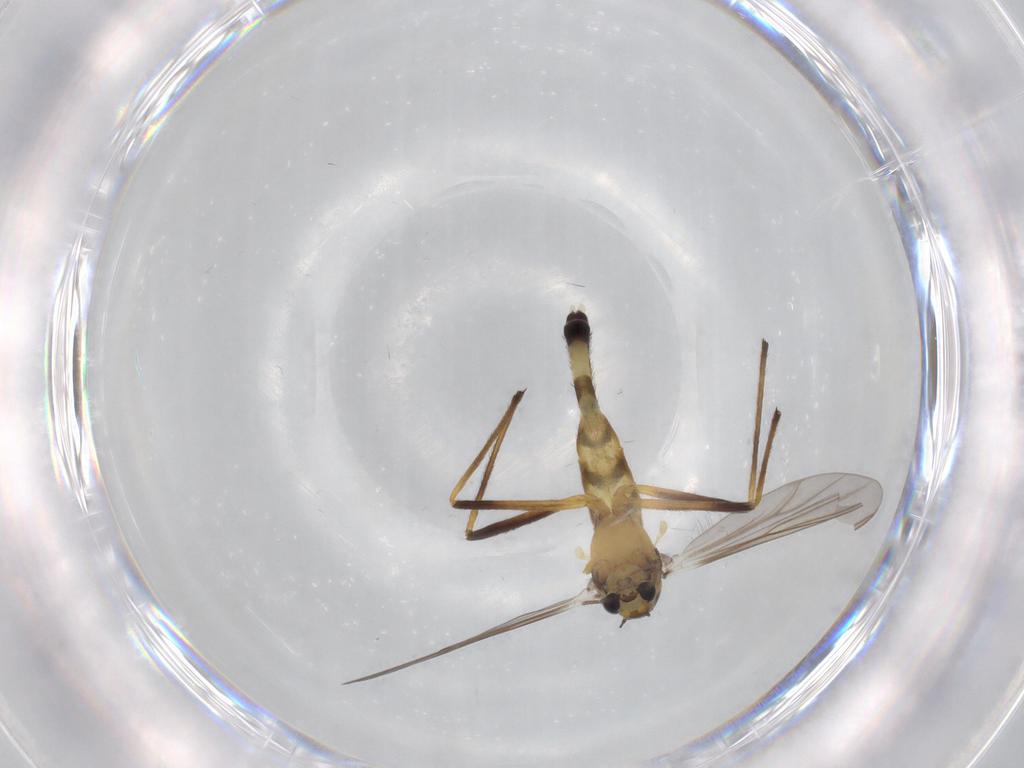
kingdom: Animalia
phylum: Arthropoda
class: Insecta
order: Diptera
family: Chironomidae
